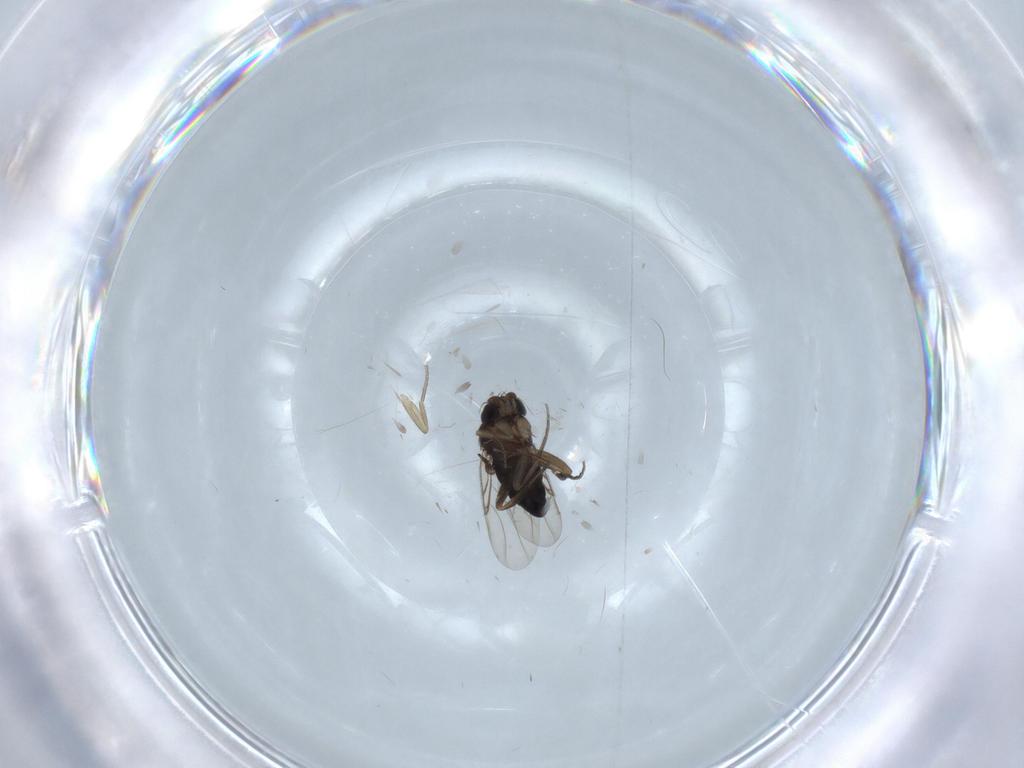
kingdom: Animalia
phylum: Arthropoda
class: Insecta
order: Diptera
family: Phoridae
